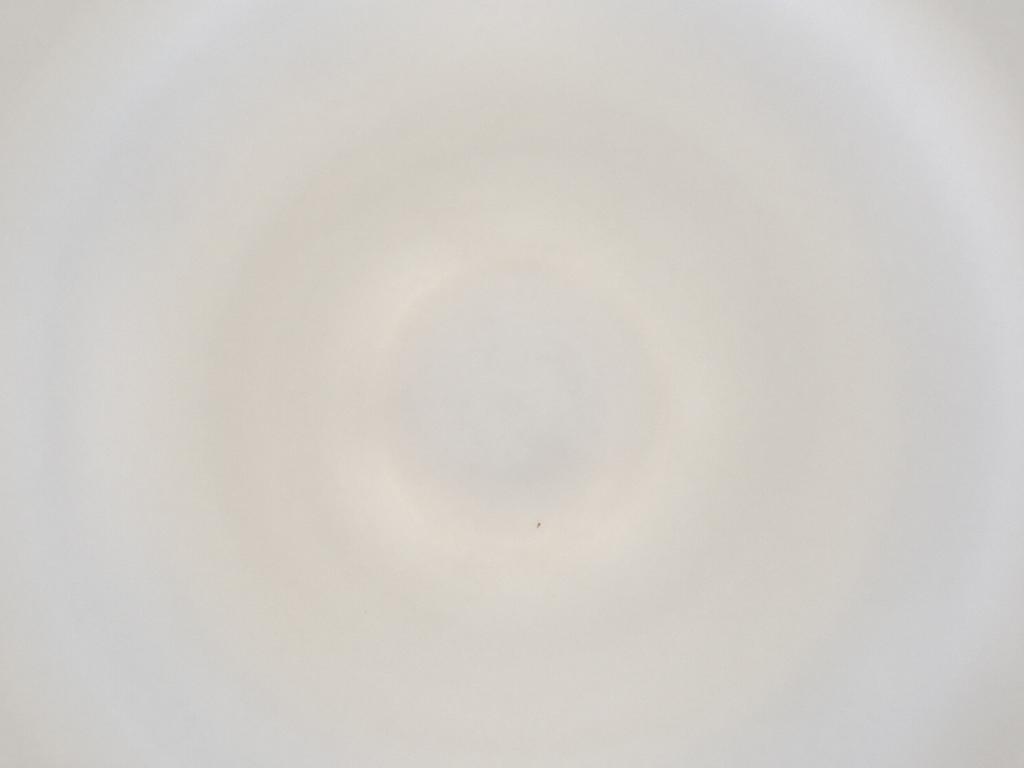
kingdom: Animalia
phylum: Arthropoda
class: Insecta
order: Diptera
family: Cecidomyiidae
